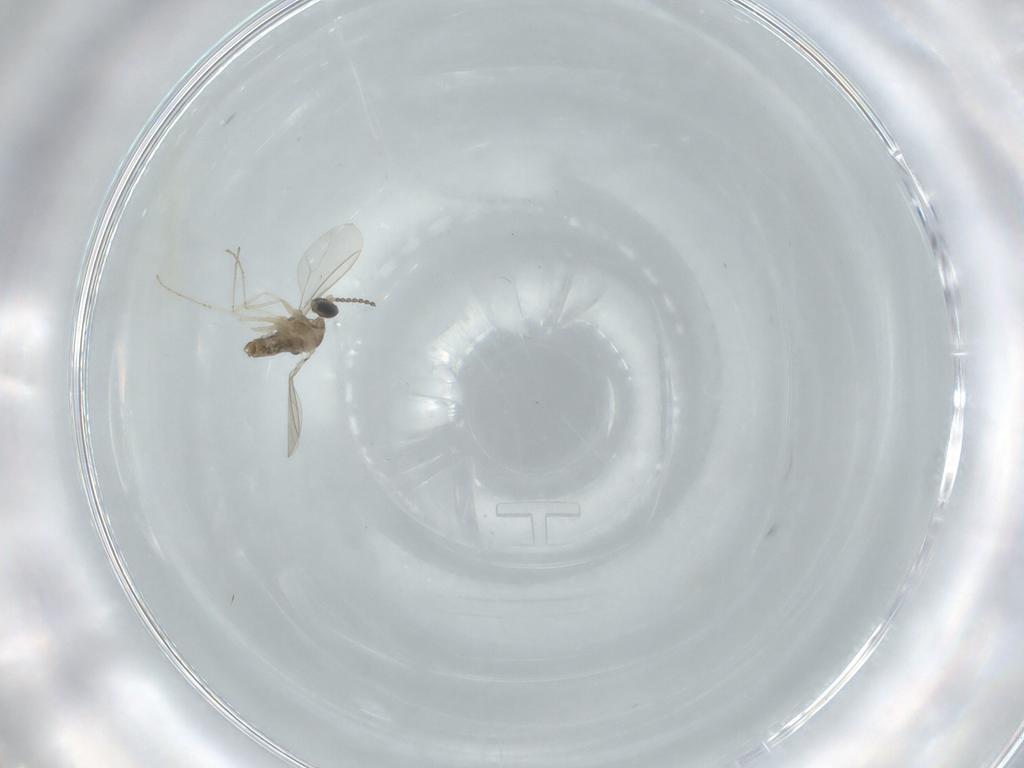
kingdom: Animalia
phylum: Arthropoda
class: Insecta
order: Diptera
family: Cecidomyiidae
